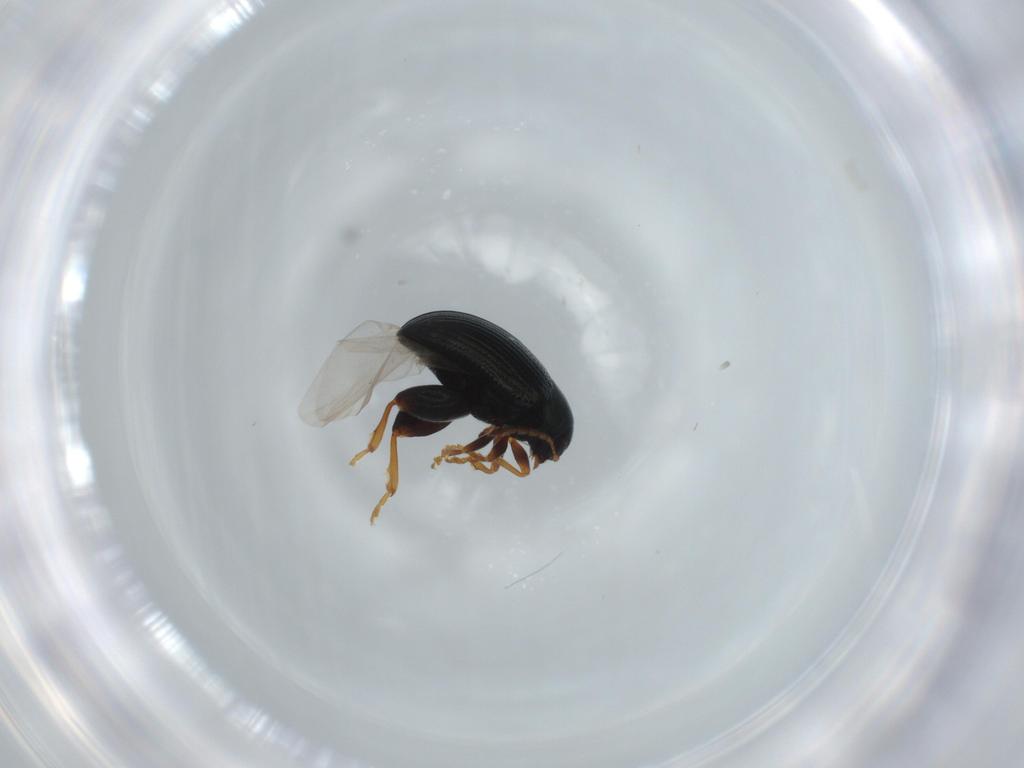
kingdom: Animalia
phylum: Arthropoda
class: Insecta
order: Coleoptera
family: Chrysomelidae
